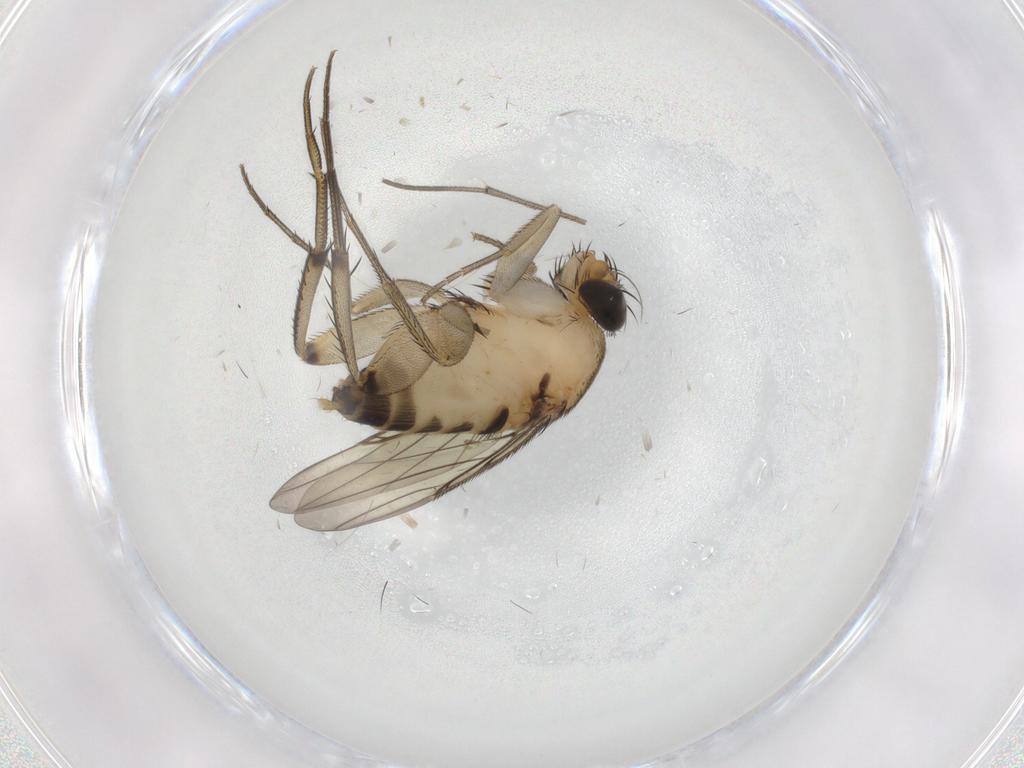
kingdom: Animalia
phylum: Arthropoda
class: Insecta
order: Diptera
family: Phoridae
